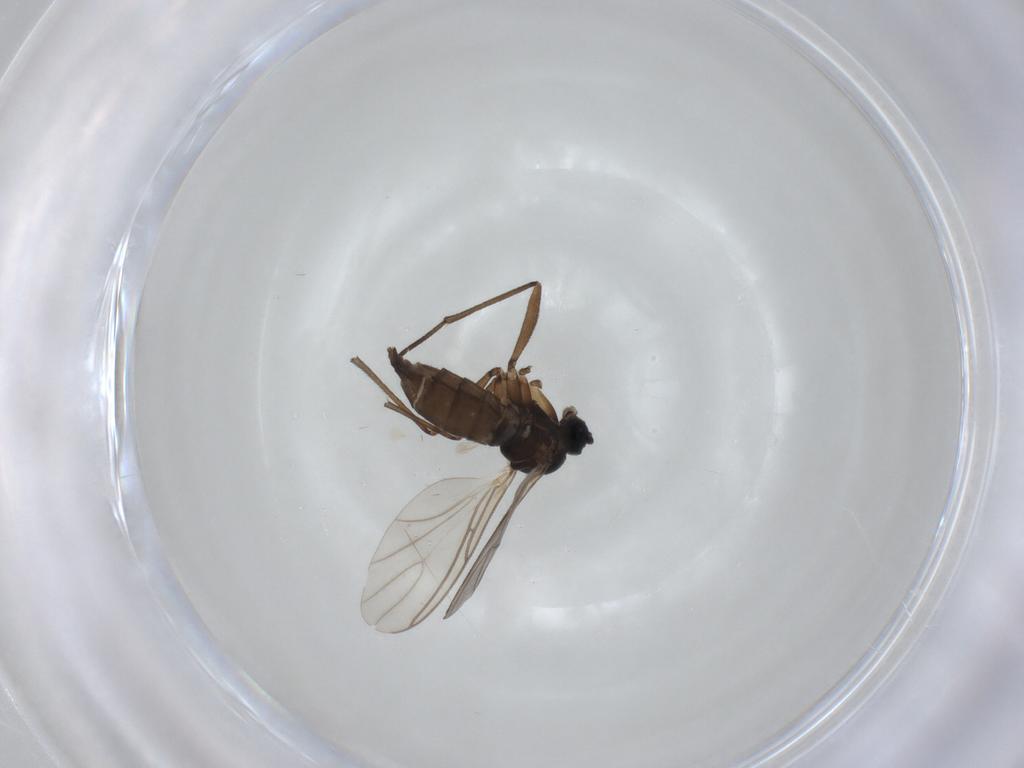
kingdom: Animalia
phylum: Arthropoda
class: Insecta
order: Diptera
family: Sciaridae
